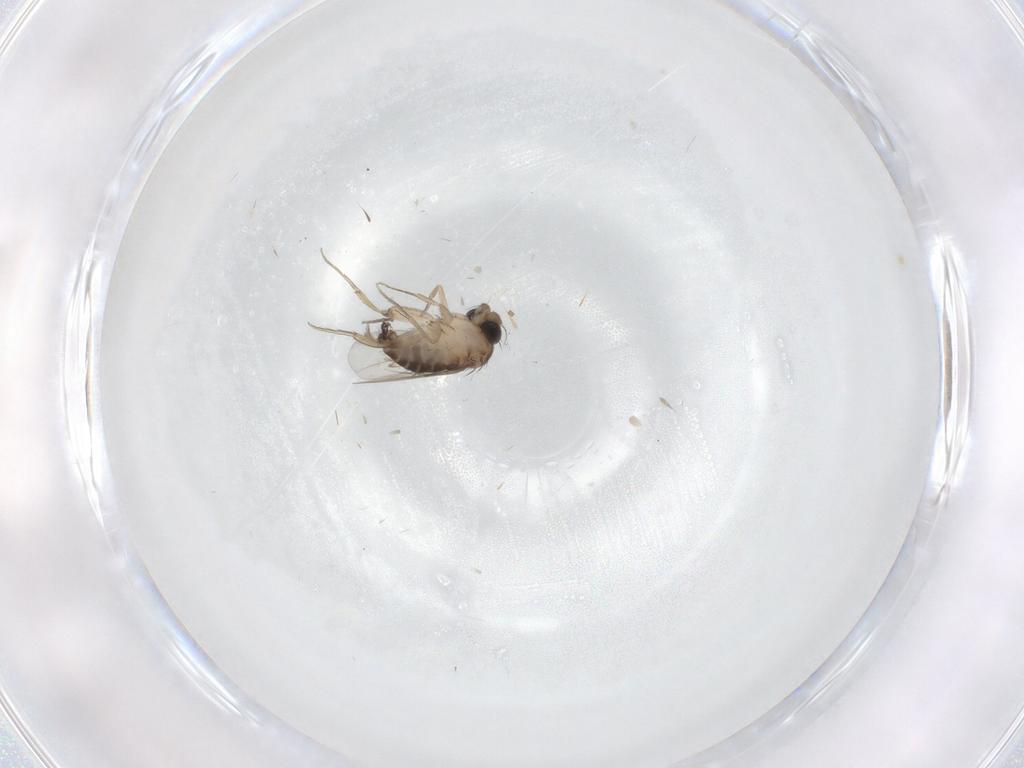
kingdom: Animalia
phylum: Arthropoda
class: Insecta
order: Diptera
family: Phoridae
